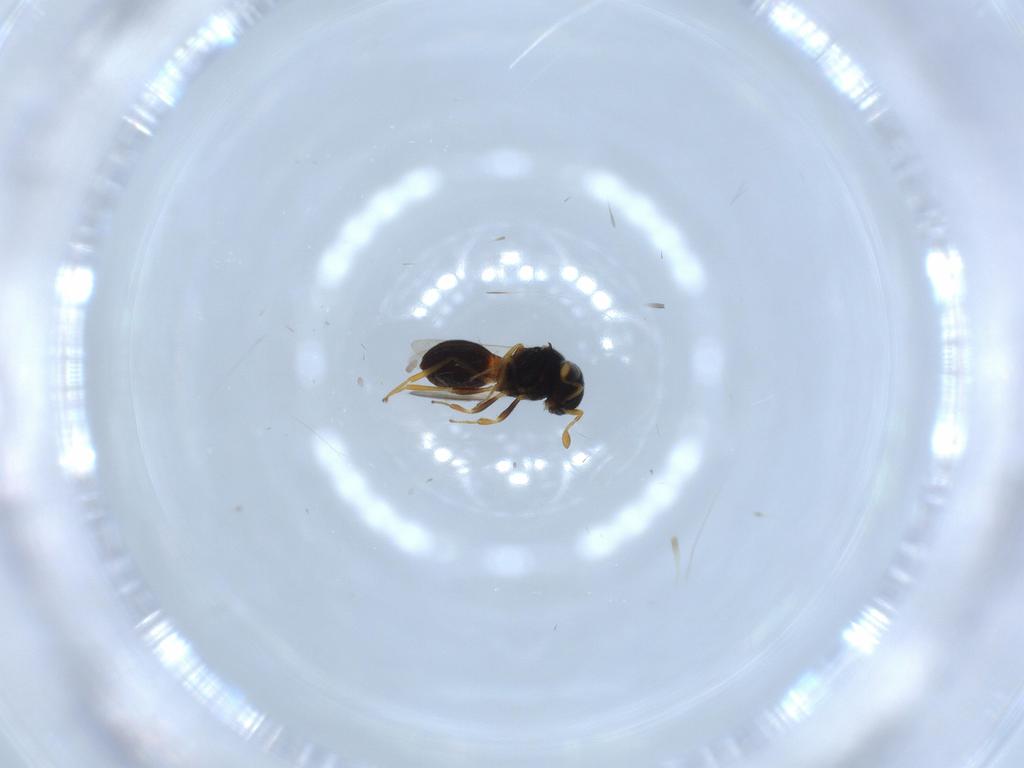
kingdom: Animalia
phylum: Arthropoda
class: Insecta
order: Hymenoptera
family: Scelionidae
